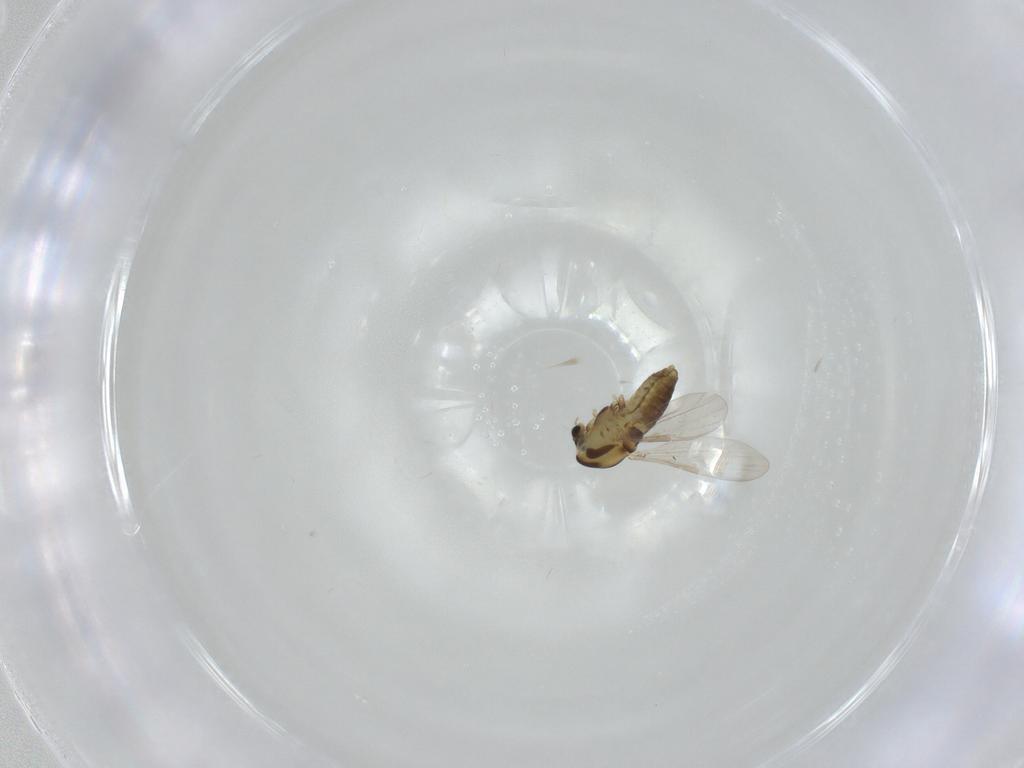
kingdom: Animalia
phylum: Arthropoda
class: Insecta
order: Diptera
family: Chironomidae
